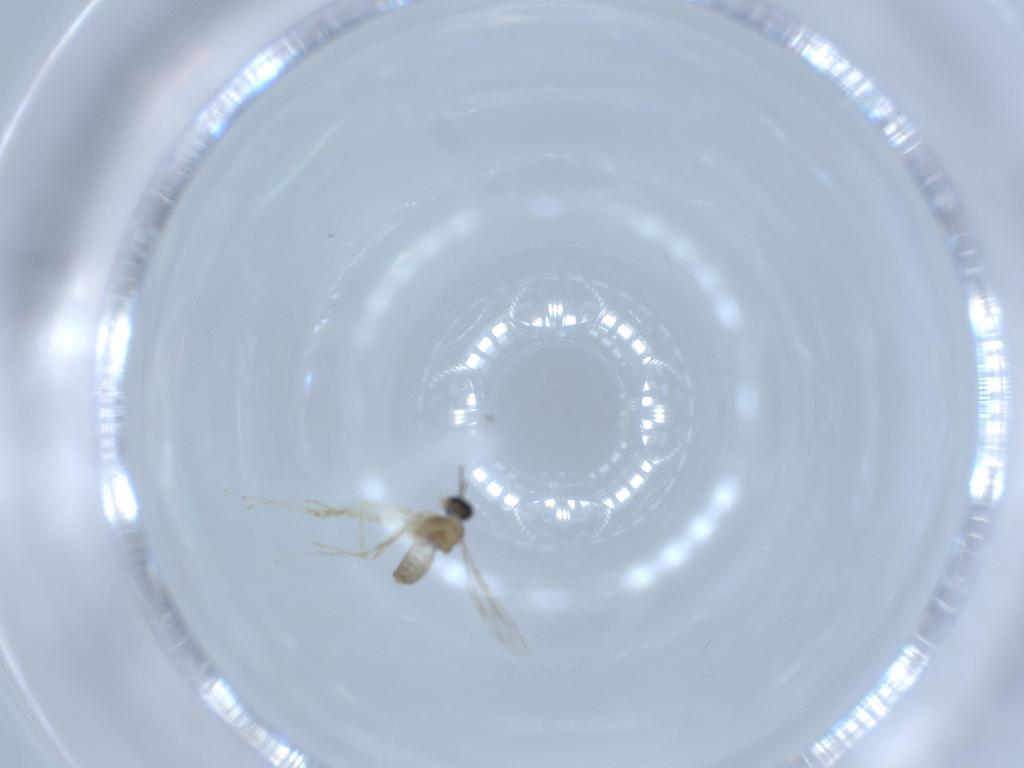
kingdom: Animalia
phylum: Arthropoda
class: Insecta
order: Diptera
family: Cecidomyiidae
